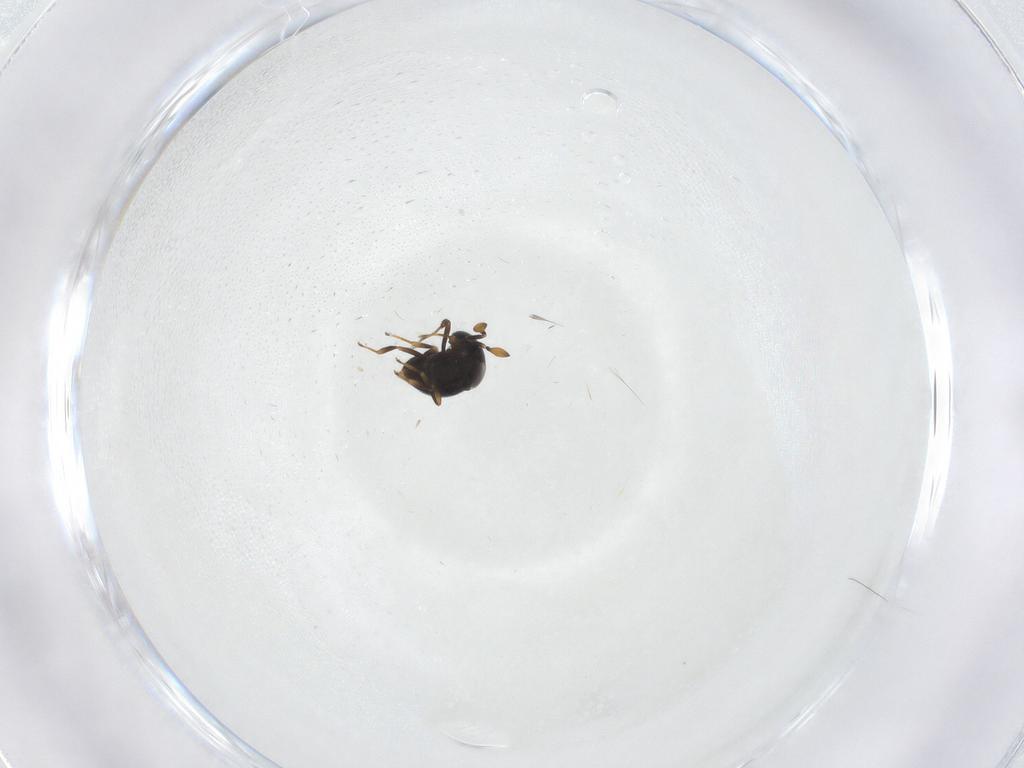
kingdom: Animalia
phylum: Arthropoda
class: Insecta
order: Hymenoptera
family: Scelionidae
